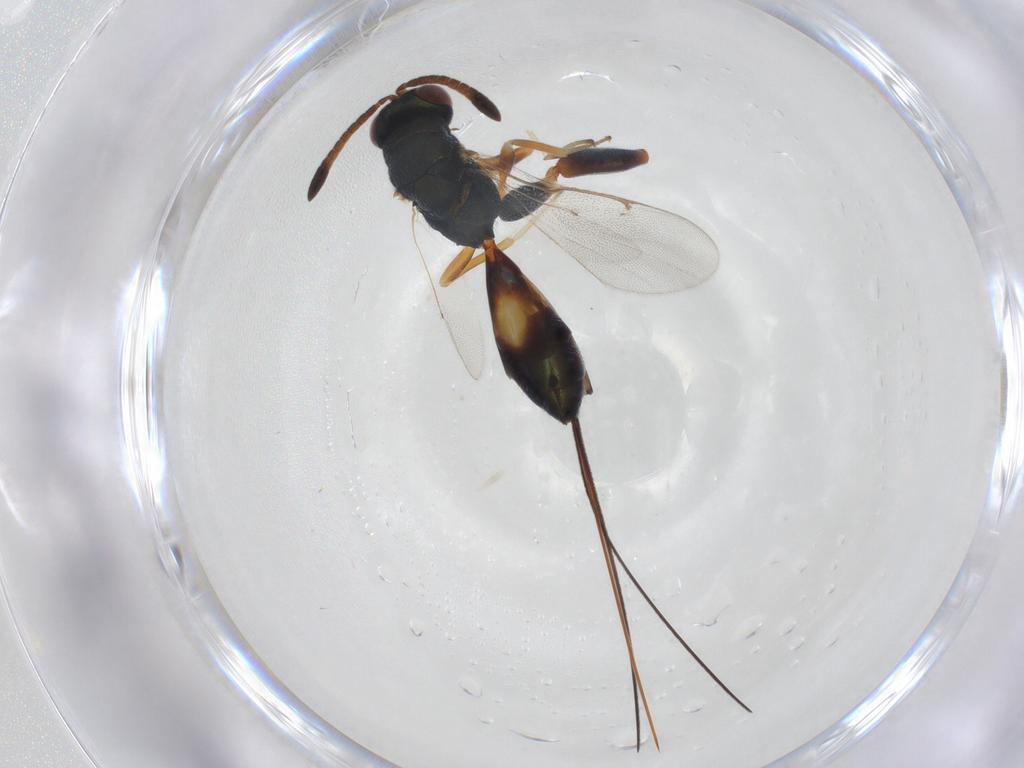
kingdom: Animalia
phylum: Arthropoda
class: Insecta
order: Hymenoptera
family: Torymidae
